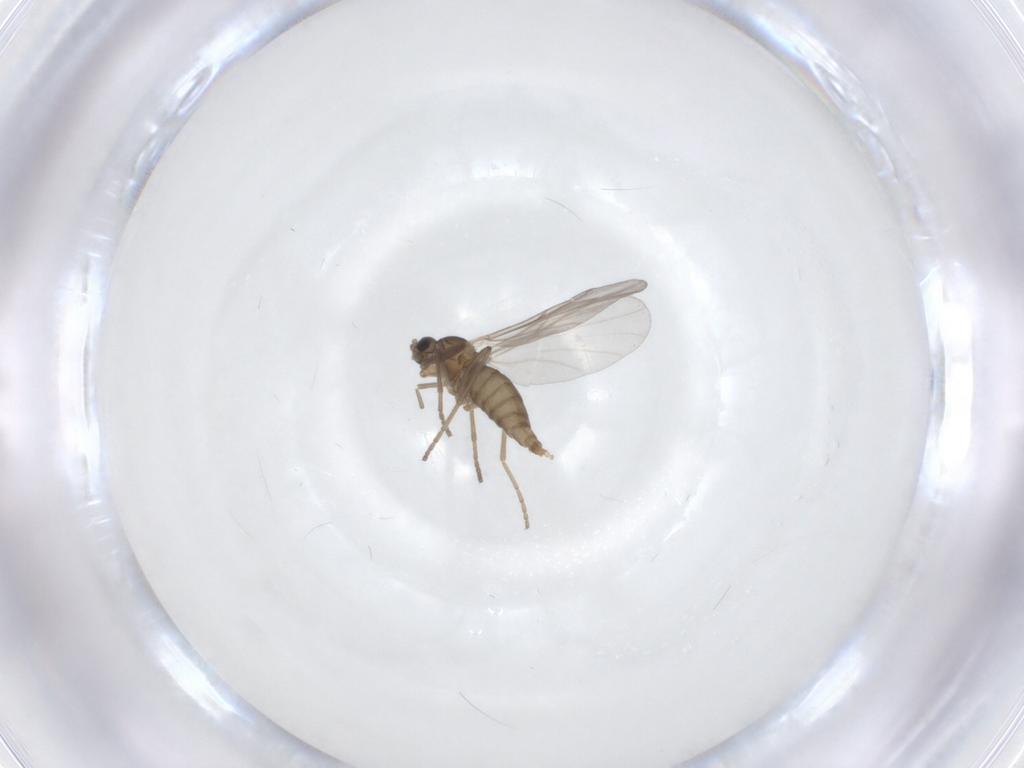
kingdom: Animalia
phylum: Arthropoda
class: Insecta
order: Diptera
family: Cecidomyiidae
